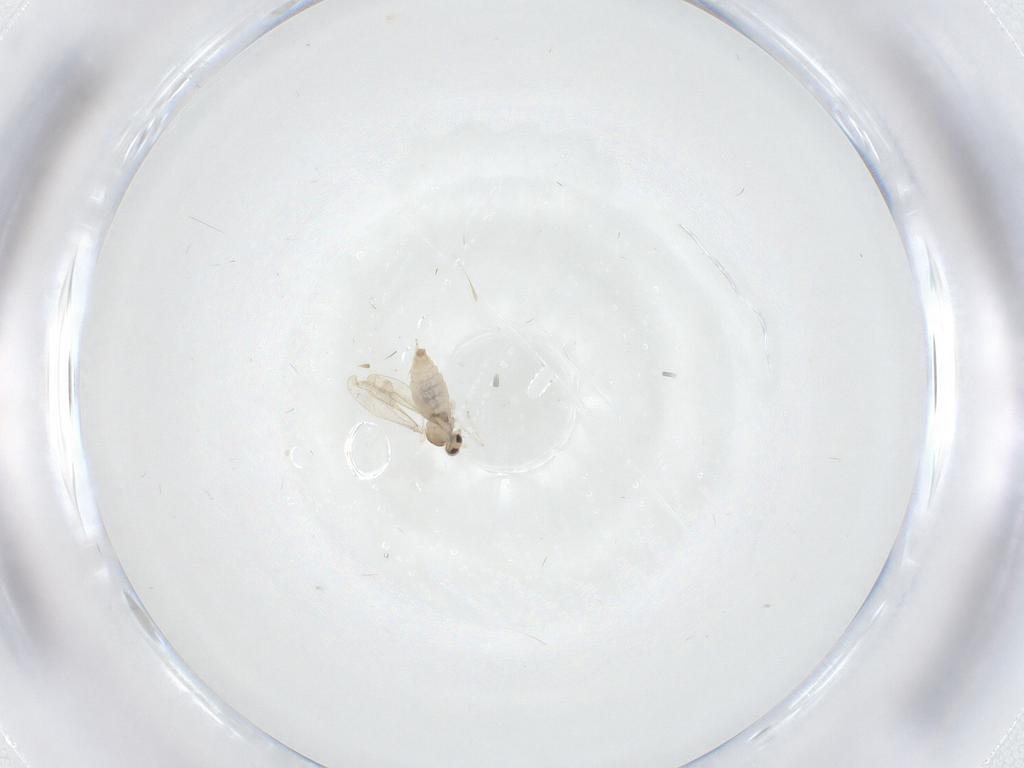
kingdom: Animalia
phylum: Arthropoda
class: Insecta
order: Diptera
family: Cecidomyiidae
